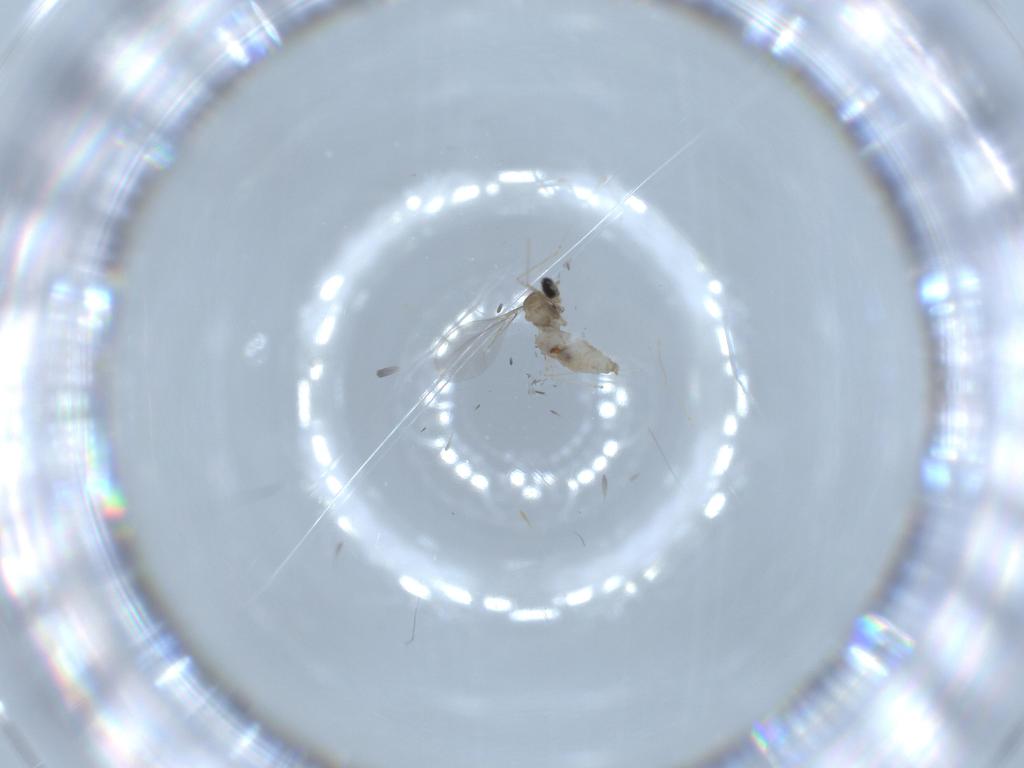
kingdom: Animalia
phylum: Arthropoda
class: Insecta
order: Diptera
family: Cecidomyiidae
